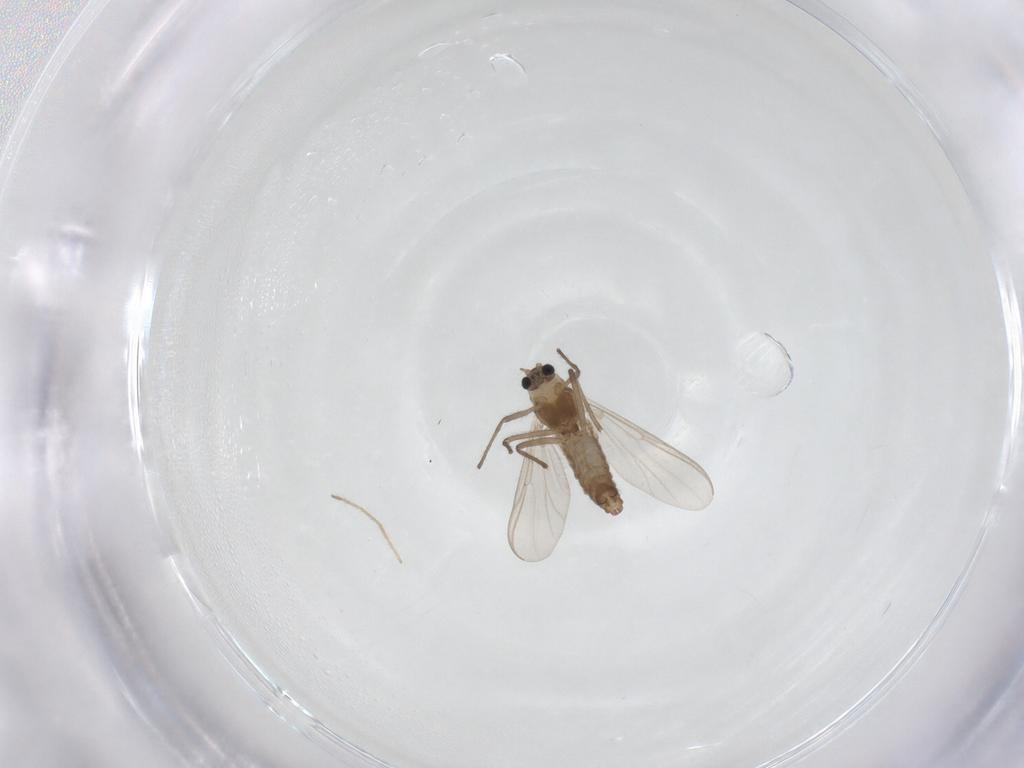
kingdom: Animalia
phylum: Arthropoda
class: Insecta
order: Diptera
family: Chironomidae
